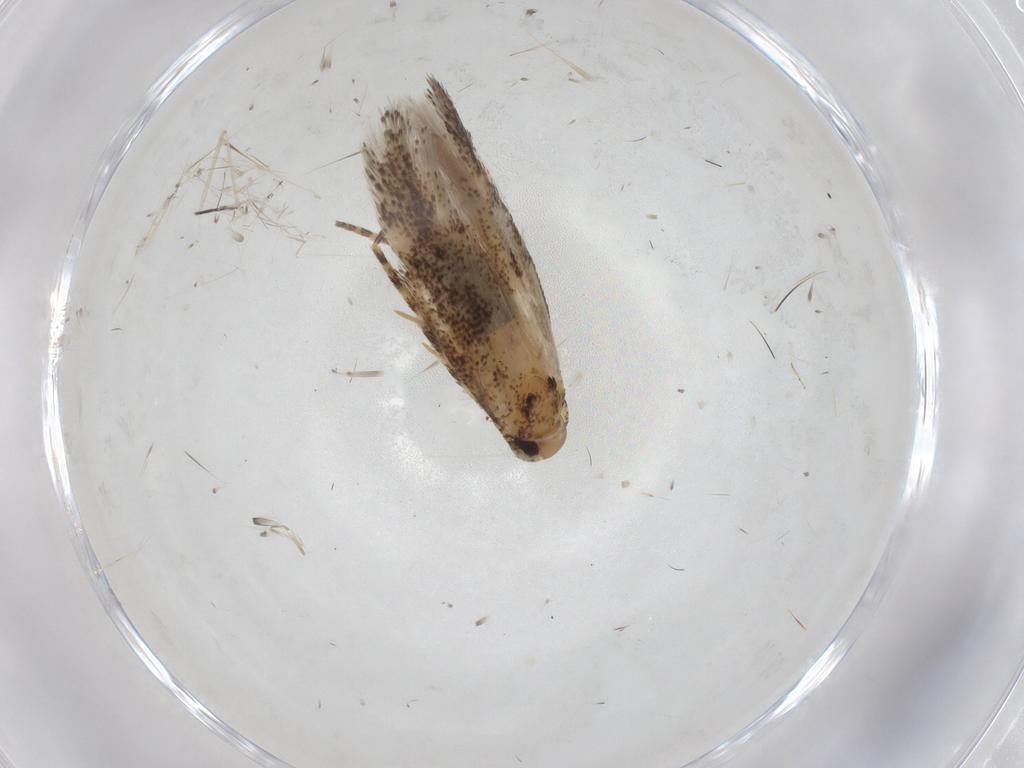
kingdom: Animalia
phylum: Arthropoda
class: Insecta
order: Lepidoptera
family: Gelechiidae
